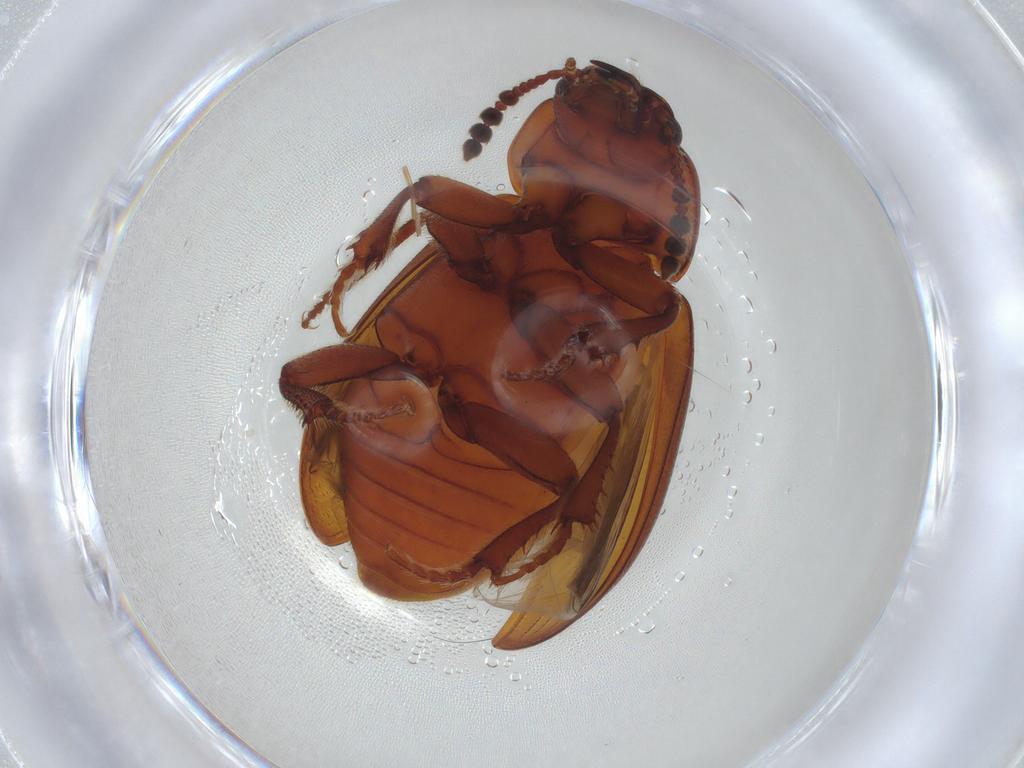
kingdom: Animalia
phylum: Arthropoda
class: Insecta
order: Coleoptera
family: Leiodidae
